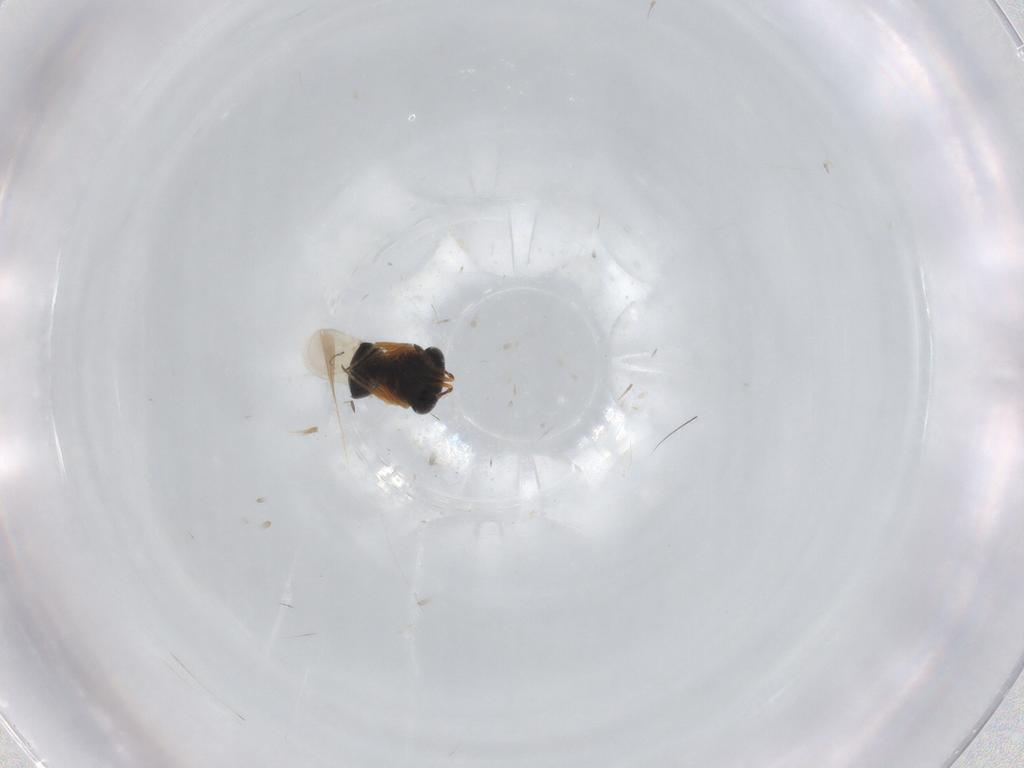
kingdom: Animalia
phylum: Arthropoda
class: Insecta
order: Hymenoptera
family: Scelionidae
